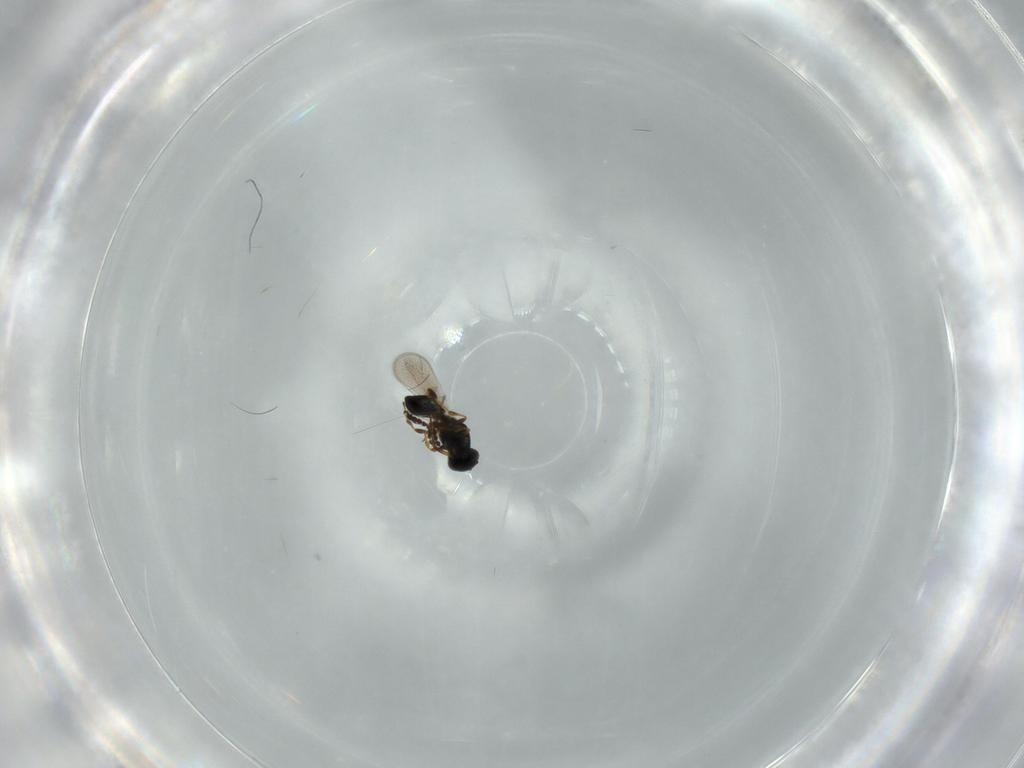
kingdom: Animalia
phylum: Arthropoda
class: Insecta
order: Hymenoptera
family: Platygastridae
